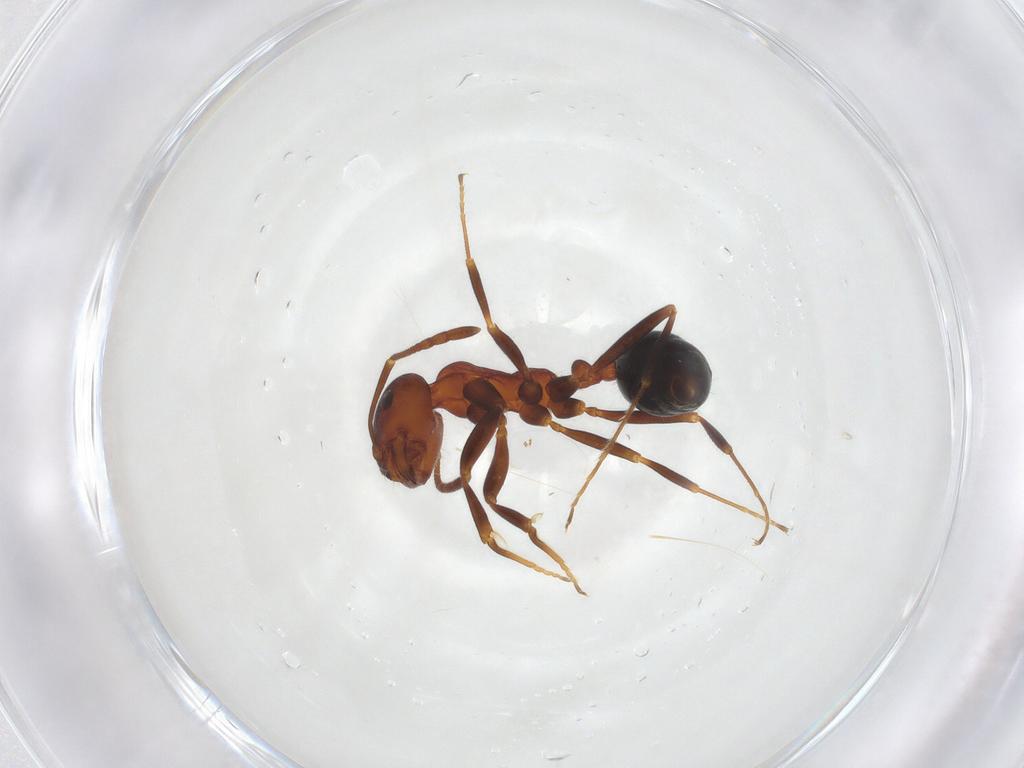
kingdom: Animalia
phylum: Arthropoda
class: Insecta
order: Hymenoptera
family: Formicidae
